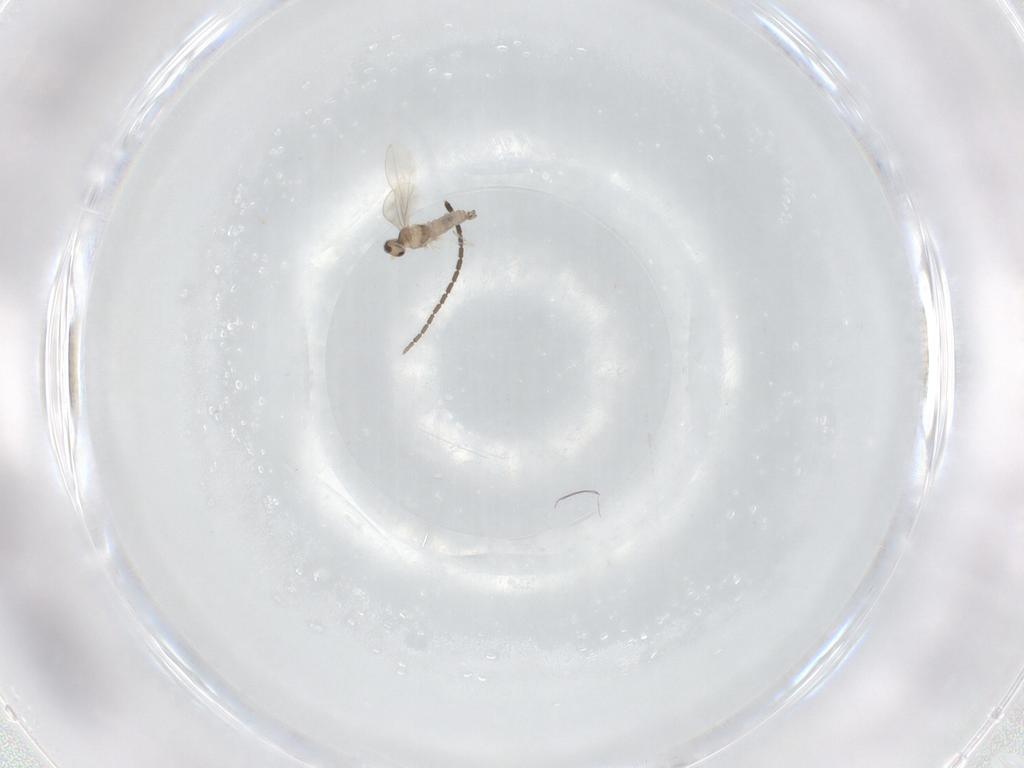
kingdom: Animalia
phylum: Arthropoda
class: Insecta
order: Diptera
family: Cecidomyiidae
